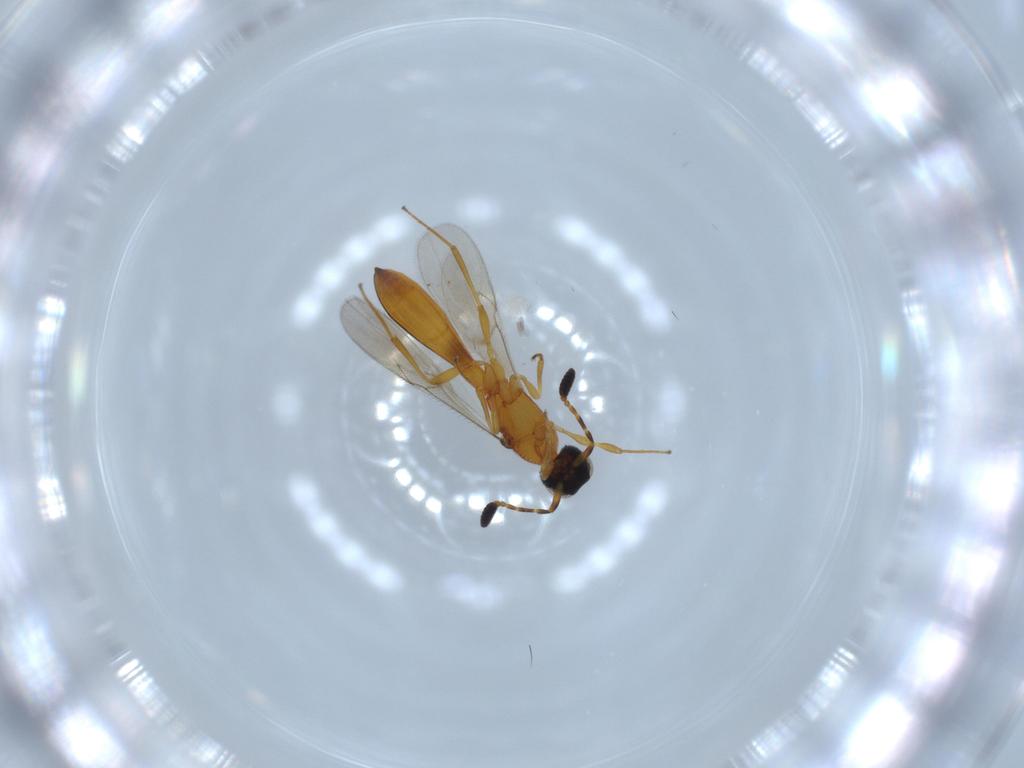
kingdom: Animalia
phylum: Arthropoda
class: Insecta
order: Hymenoptera
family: Scelionidae
